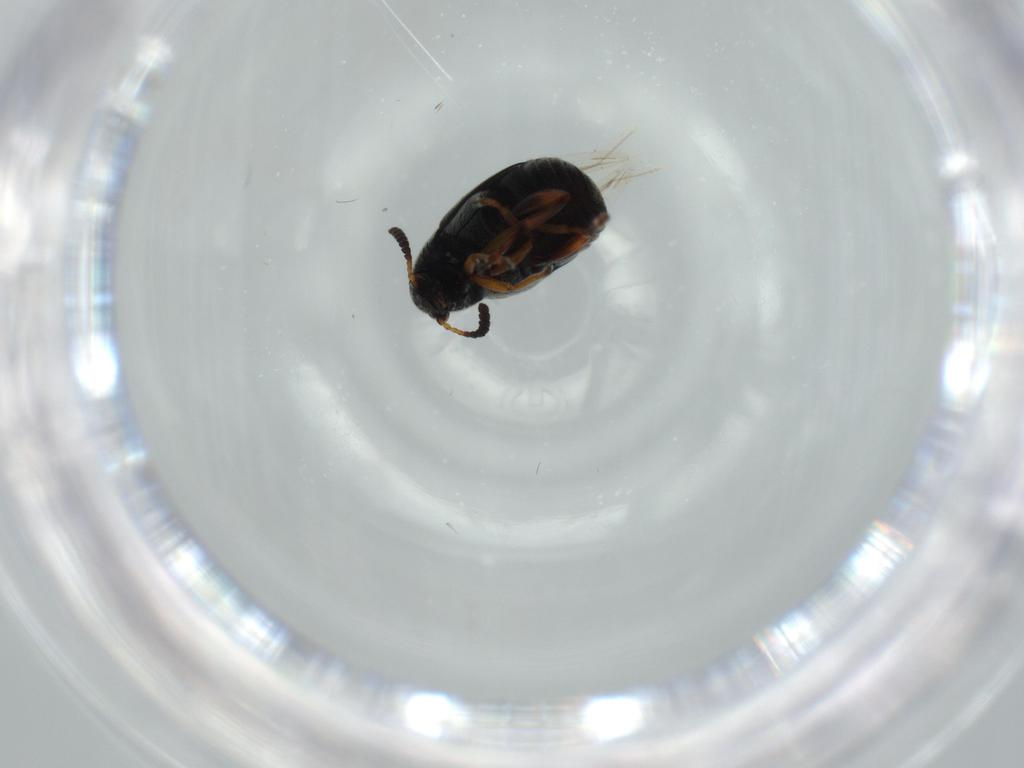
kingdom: Animalia
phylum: Arthropoda
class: Insecta
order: Coleoptera
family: Chrysomelidae
